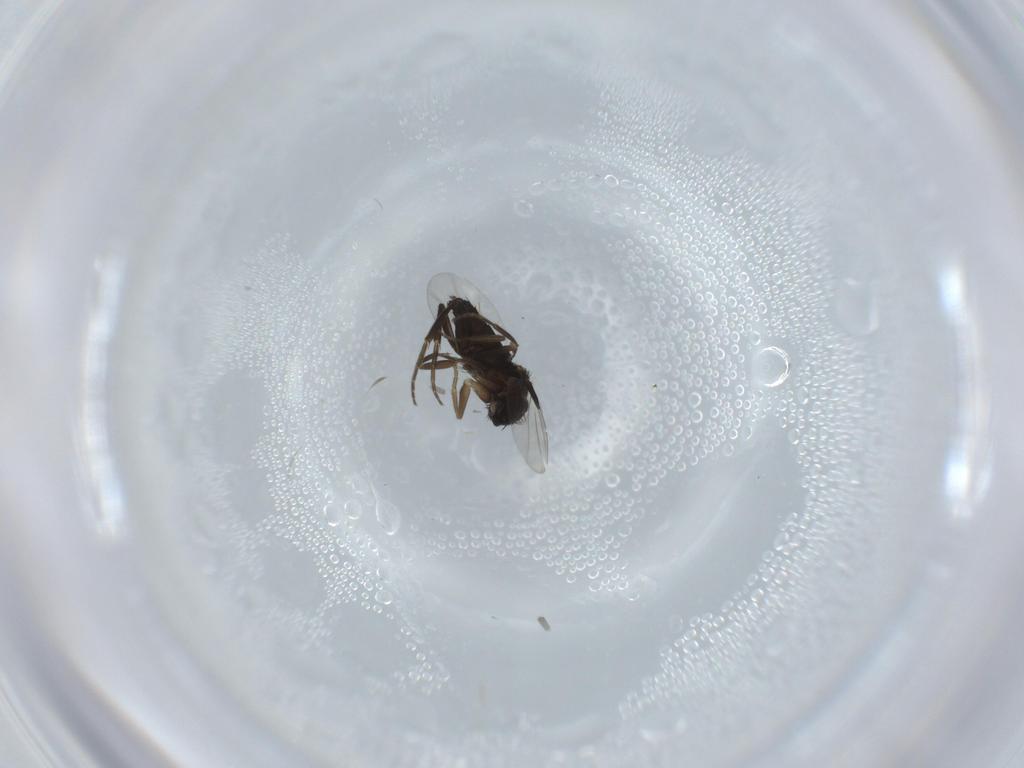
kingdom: Animalia
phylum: Arthropoda
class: Insecta
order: Diptera
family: Phoridae
